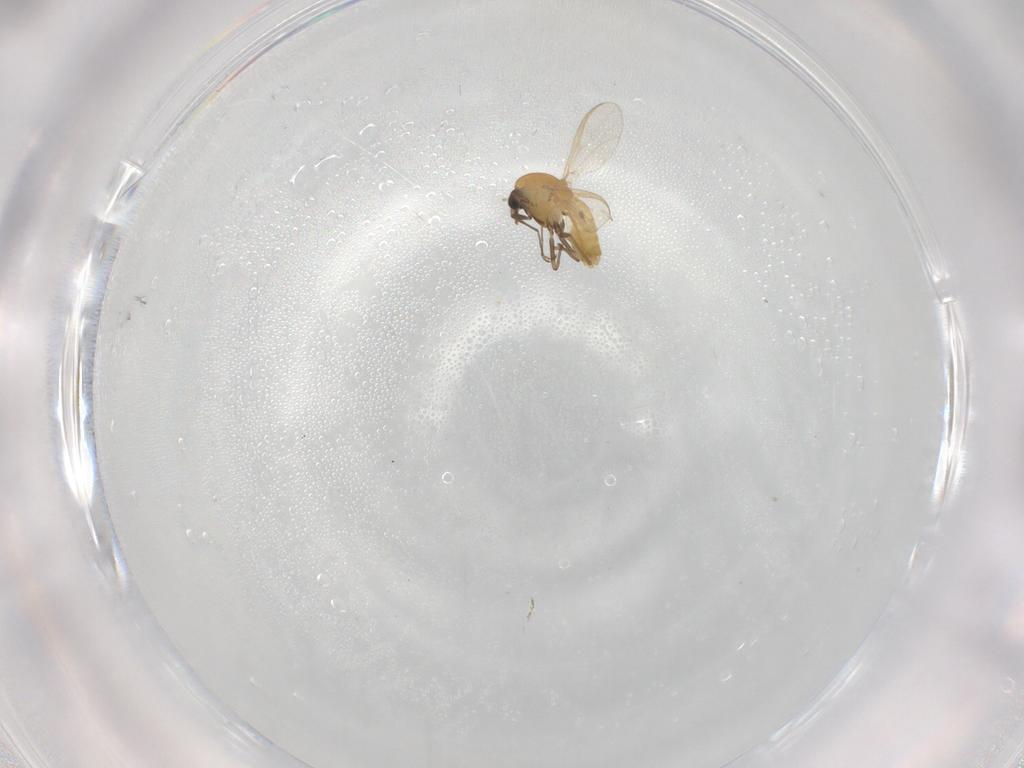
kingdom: Animalia
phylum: Arthropoda
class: Insecta
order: Diptera
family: Chironomidae
